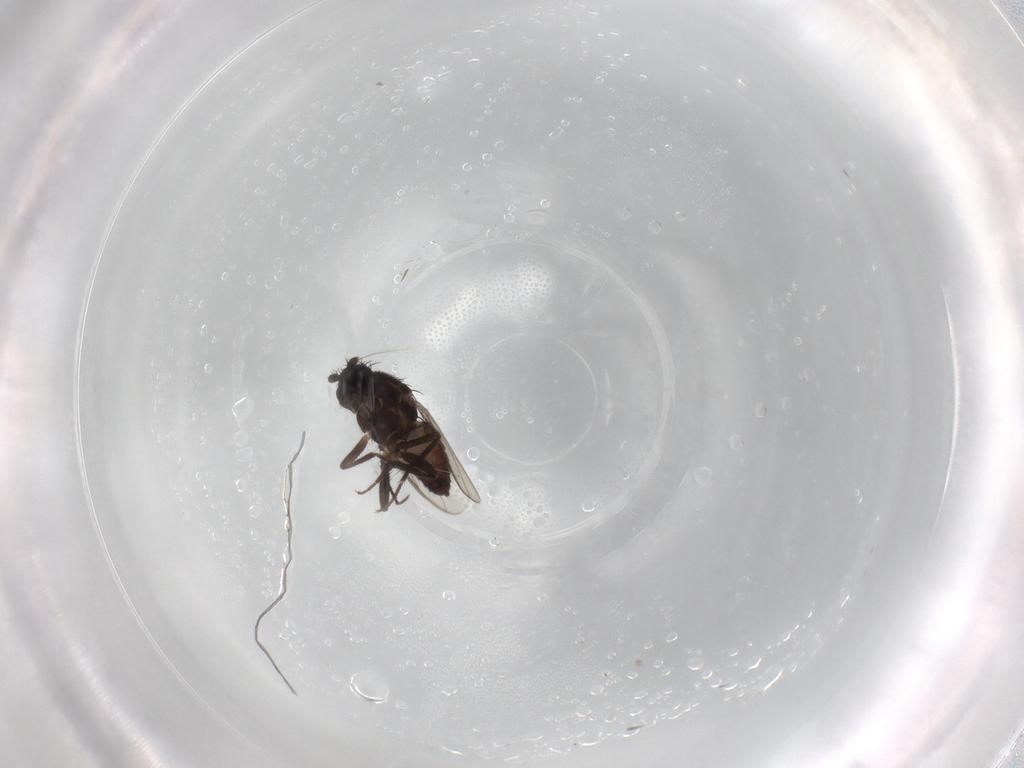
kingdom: Animalia
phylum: Arthropoda
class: Insecta
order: Diptera
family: Sphaeroceridae
